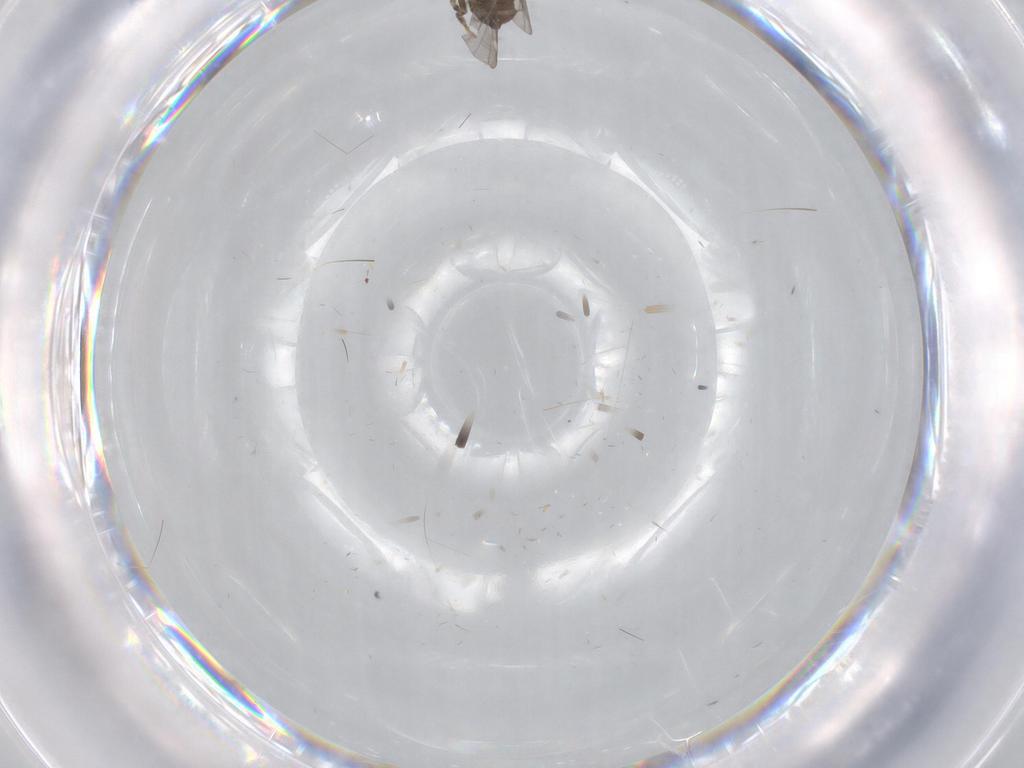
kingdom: Animalia
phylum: Arthropoda
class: Insecta
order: Diptera
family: Ceratopogonidae
